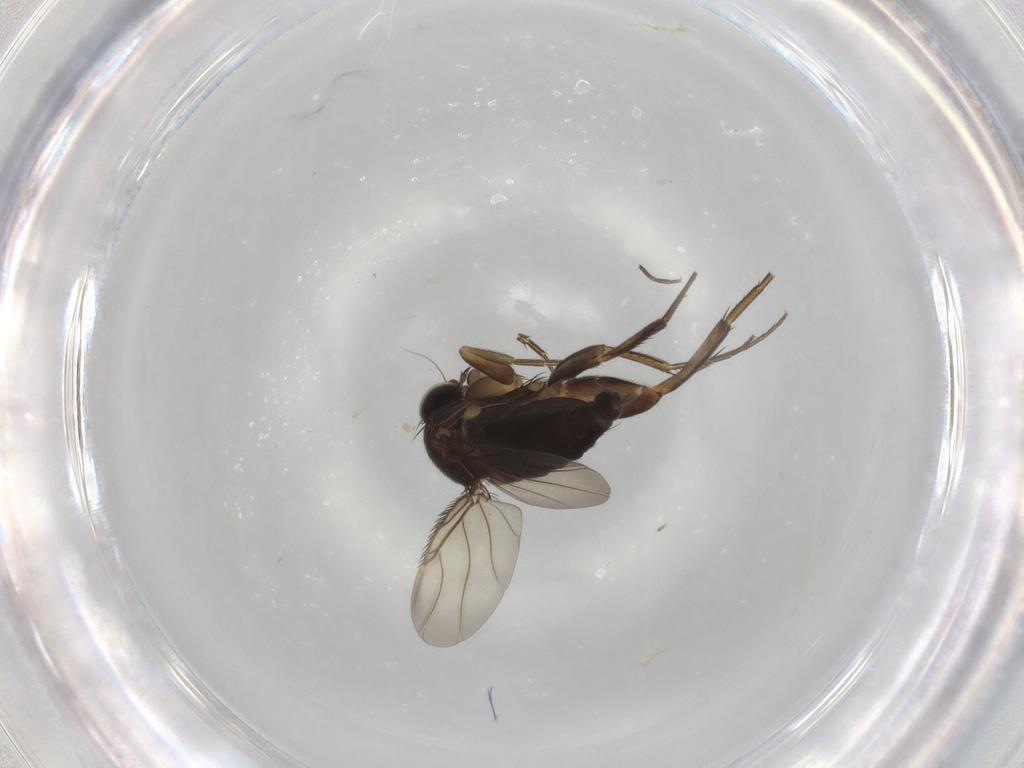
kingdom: Animalia
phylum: Arthropoda
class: Insecta
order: Diptera
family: Phoridae
